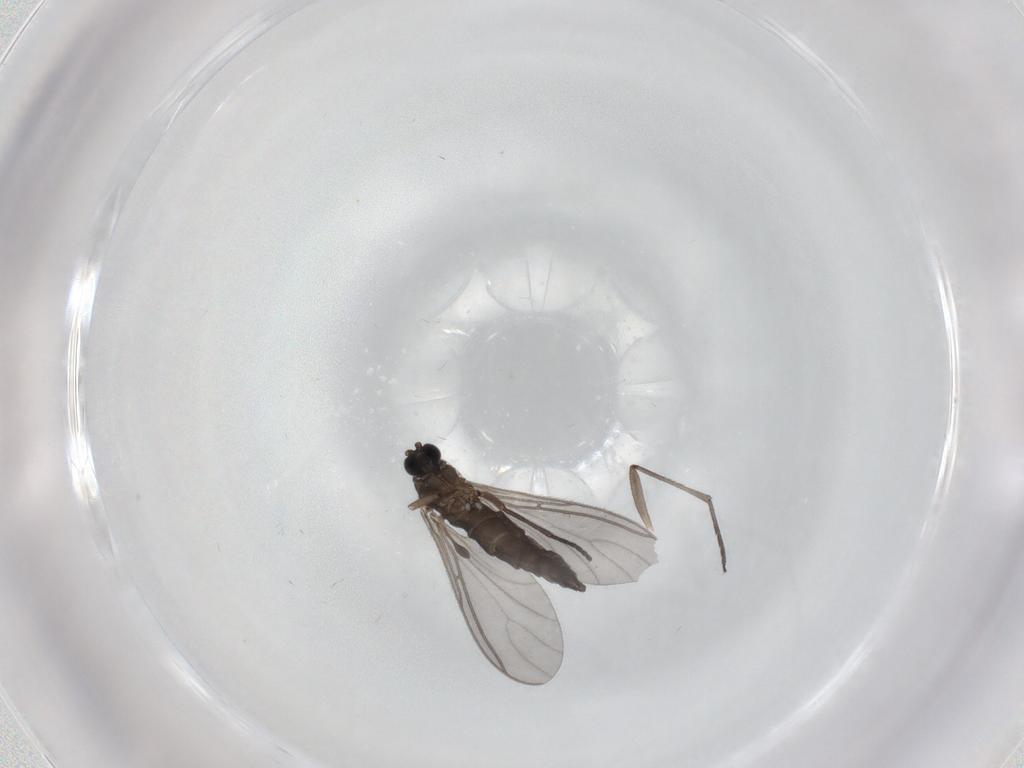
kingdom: Animalia
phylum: Arthropoda
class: Insecta
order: Diptera
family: Sciaridae
